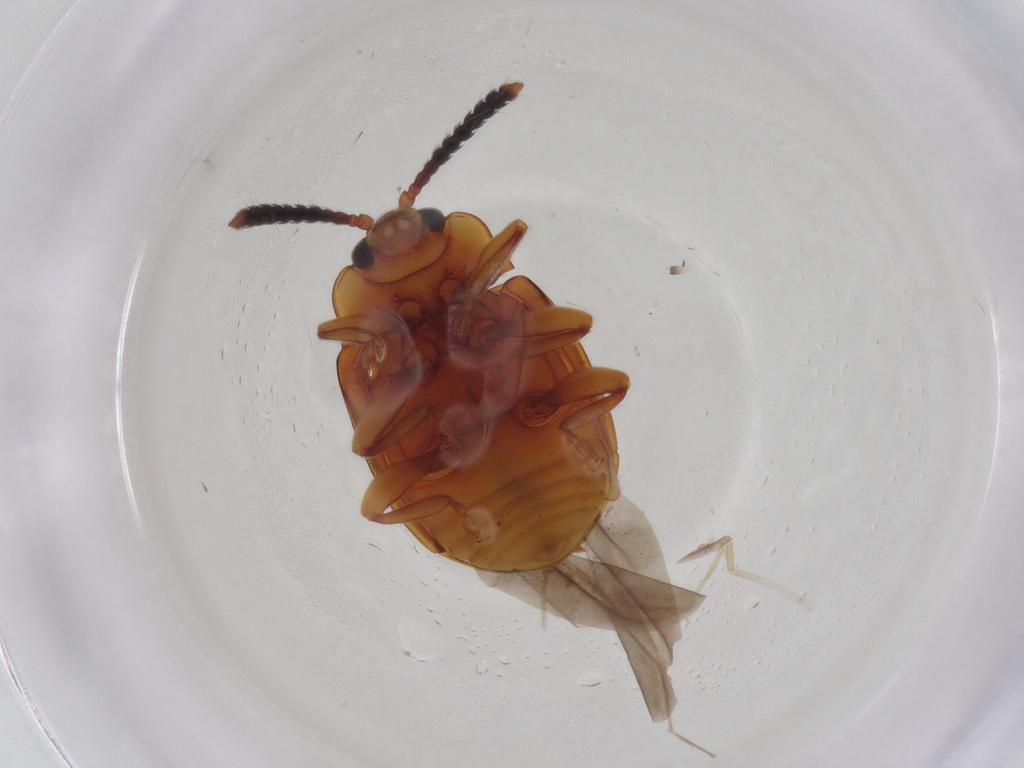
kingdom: Animalia
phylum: Arthropoda
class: Insecta
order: Coleoptera
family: Endomychidae
